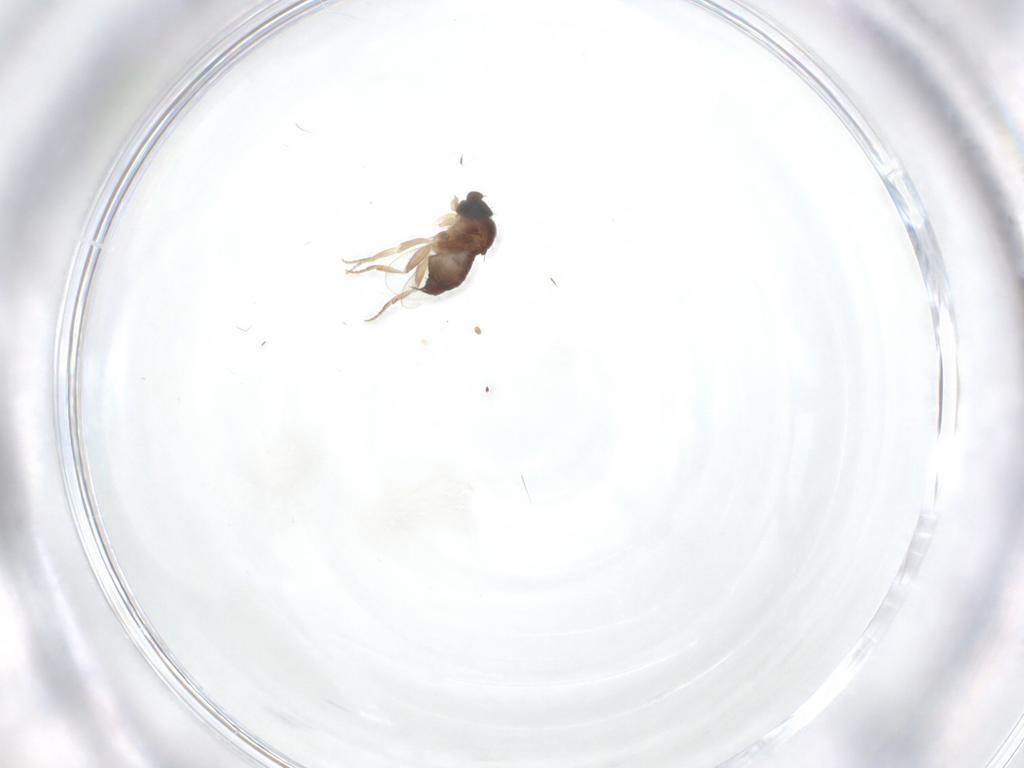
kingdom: Animalia
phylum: Arthropoda
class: Insecta
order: Diptera
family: Phoridae
